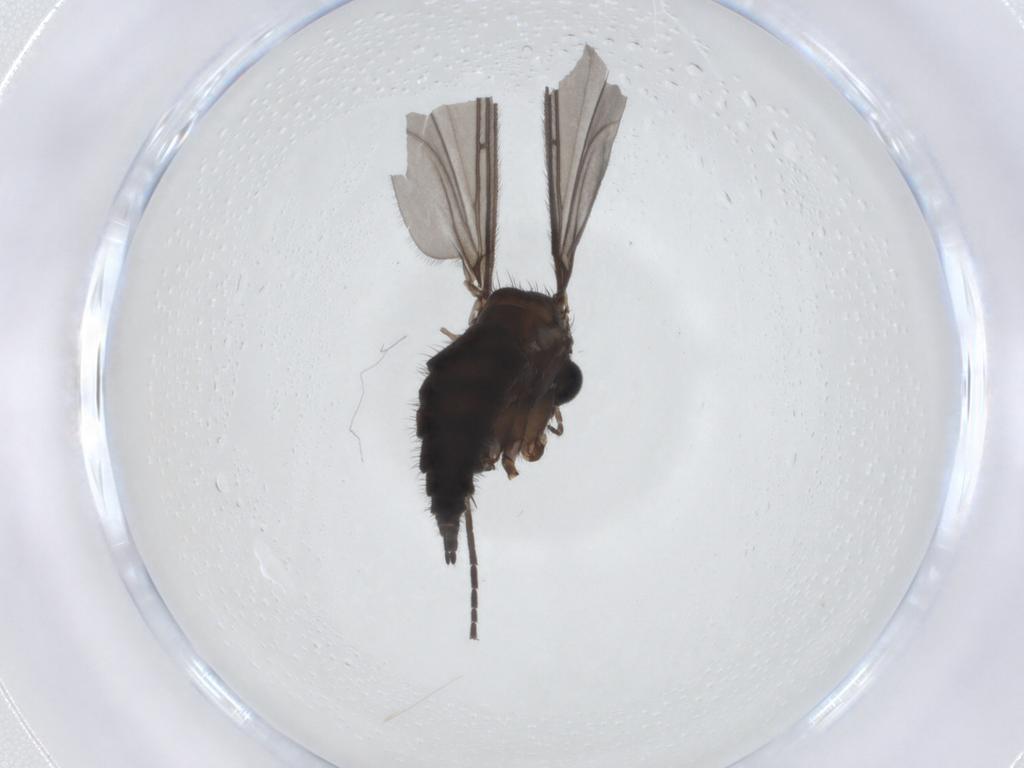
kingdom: Animalia
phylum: Arthropoda
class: Insecta
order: Diptera
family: Sciaridae
